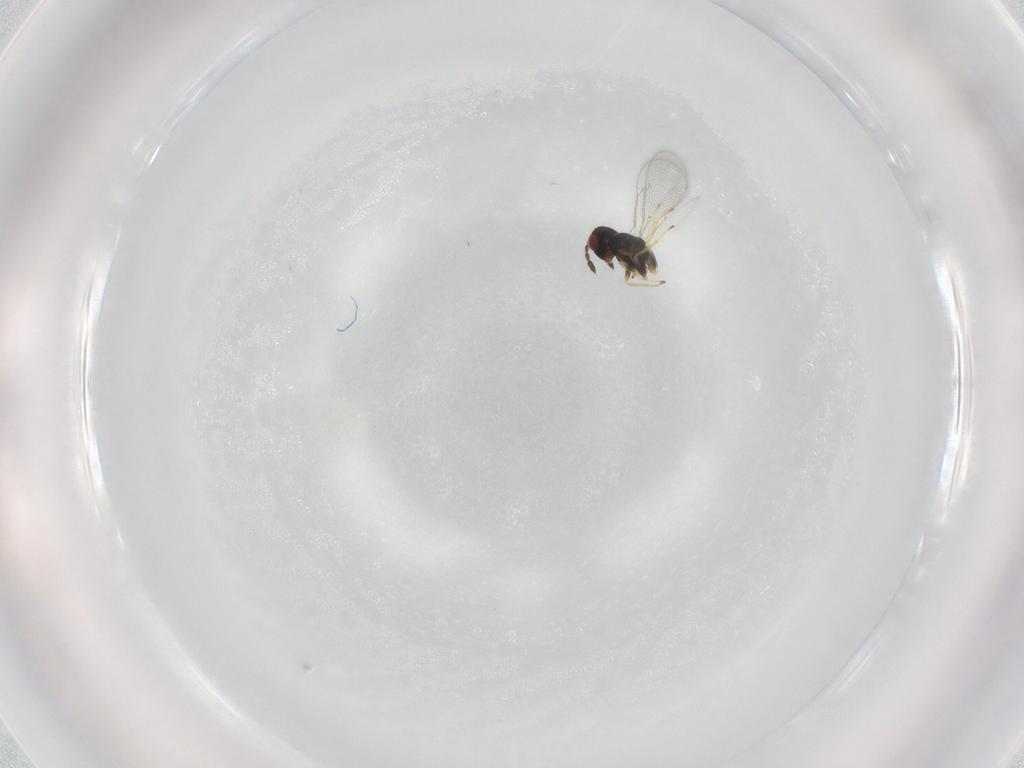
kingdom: Animalia
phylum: Arthropoda
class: Insecta
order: Hymenoptera
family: Eulophidae
